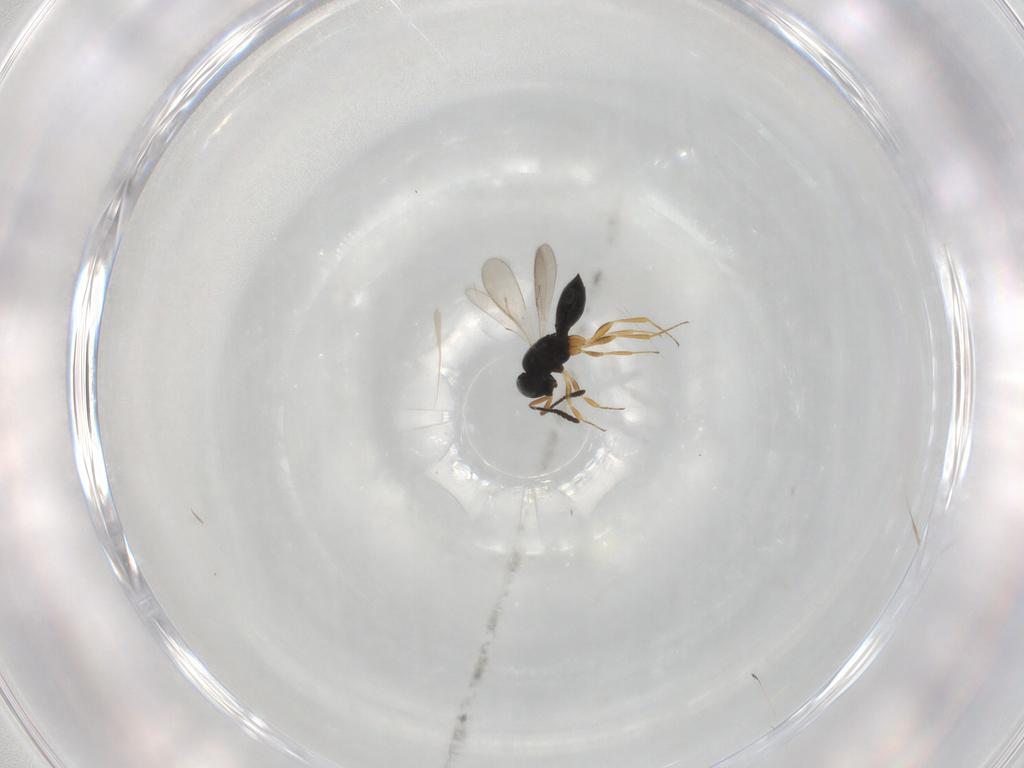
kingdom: Animalia
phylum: Arthropoda
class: Insecta
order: Hymenoptera
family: Scelionidae
